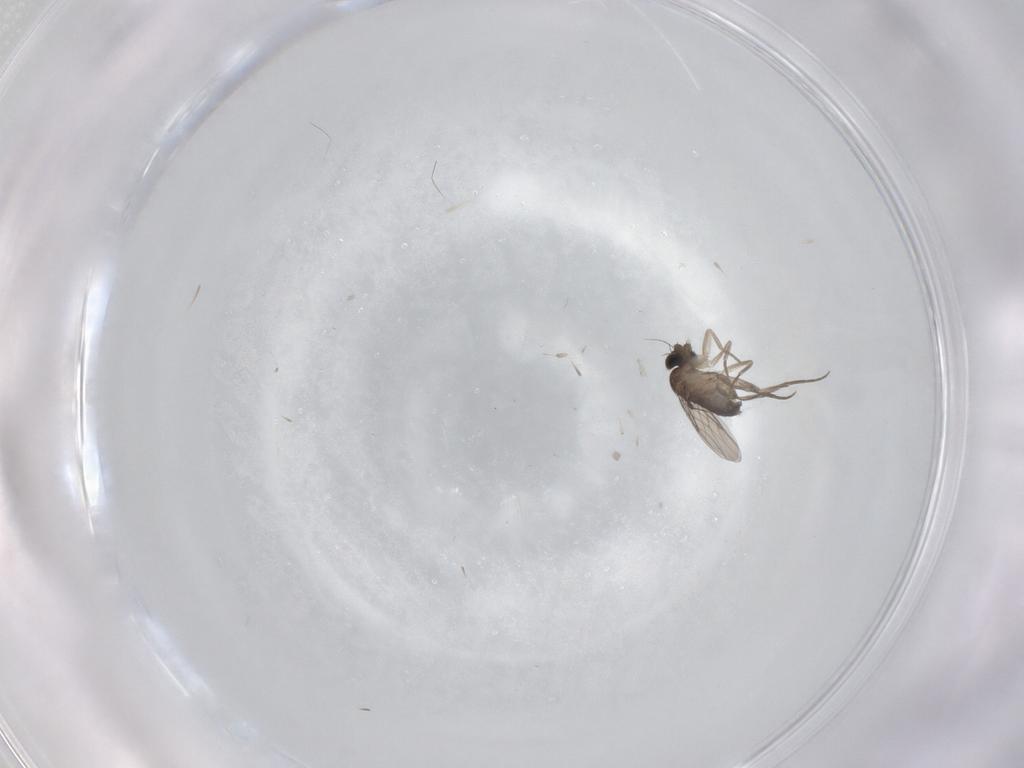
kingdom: Animalia
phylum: Arthropoda
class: Insecta
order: Diptera
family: Phoridae
